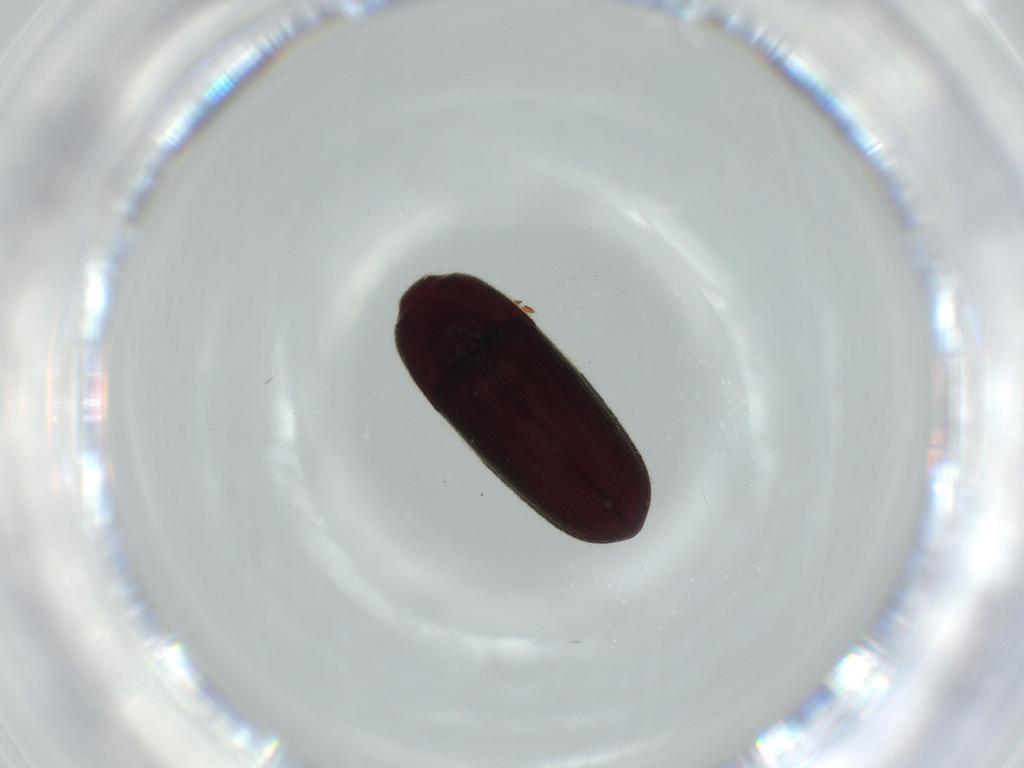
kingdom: Animalia
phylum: Arthropoda
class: Insecta
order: Coleoptera
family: Throscidae
